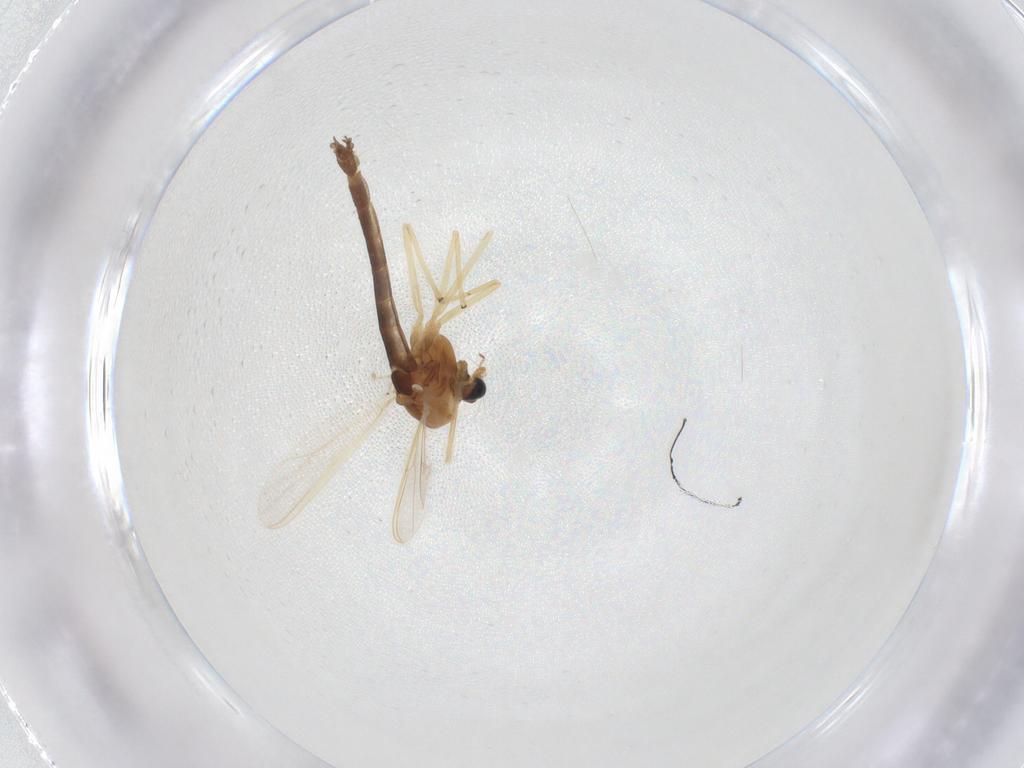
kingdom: Animalia
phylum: Arthropoda
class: Insecta
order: Diptera
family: Chironomidae
